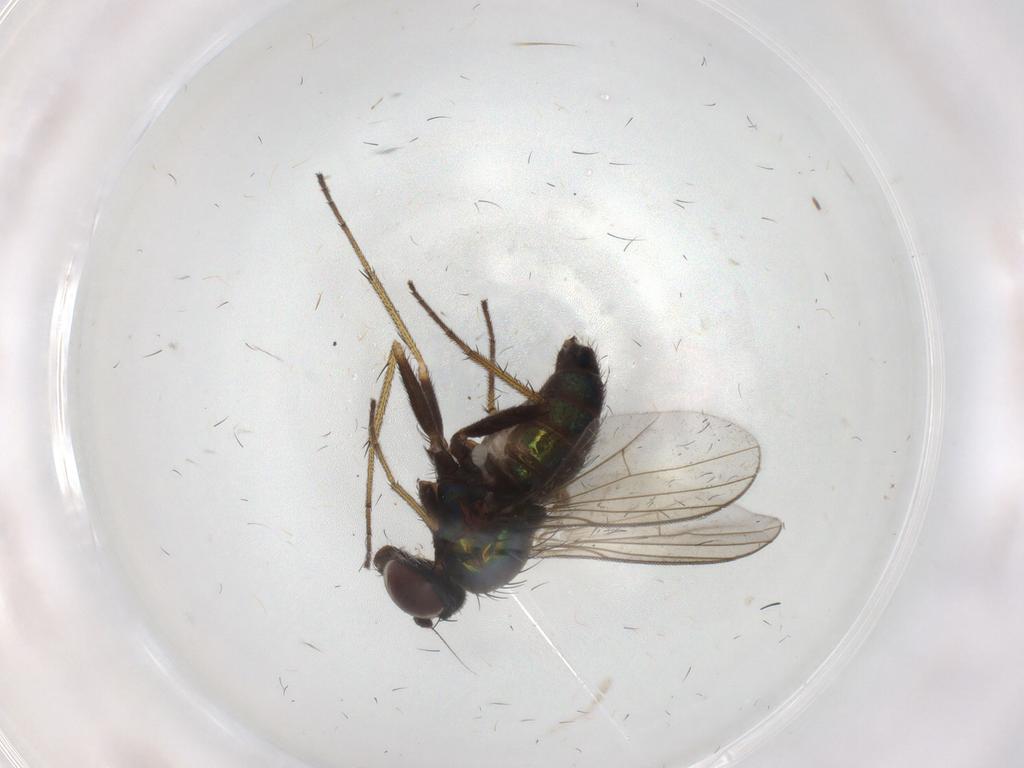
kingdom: Animalia
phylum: Arthropoda
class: Insecta
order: Diptera
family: Dolichopodidae
